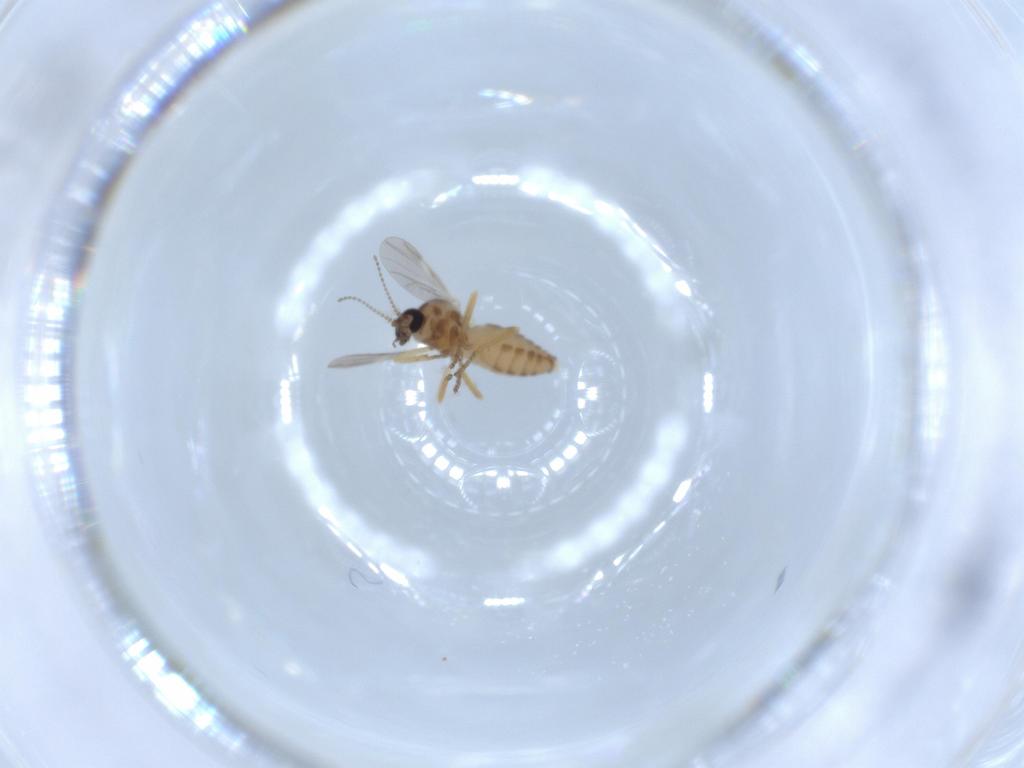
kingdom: Animalia
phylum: Arthropoda
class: Insecta
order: Diptera
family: Ceratopogonidae
